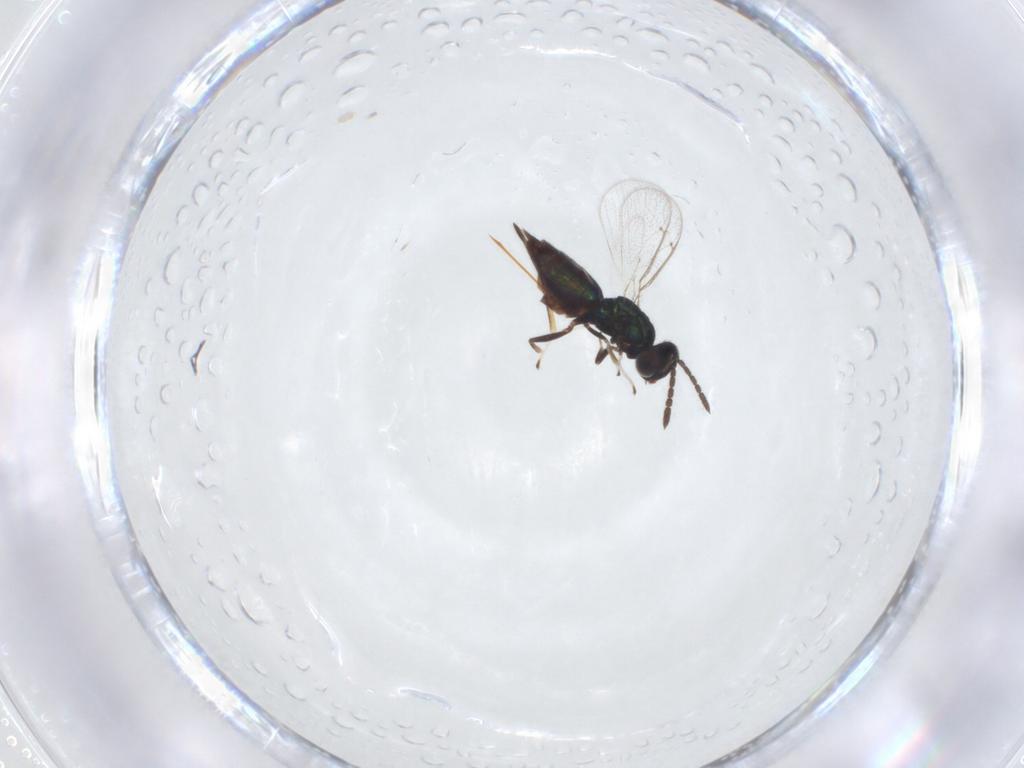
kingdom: Animalia
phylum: Arthropoda
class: Insecta
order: Hymenoptera
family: Eulophidae
